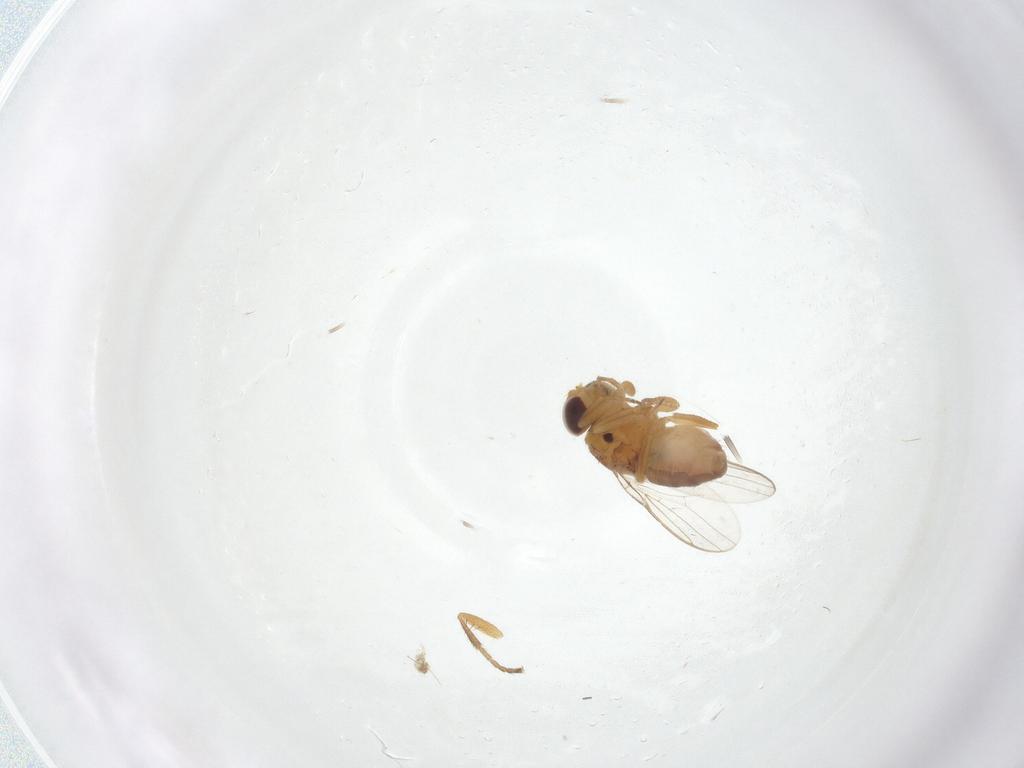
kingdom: Animalia
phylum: Arthropoda
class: Insecta
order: Diptera
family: Chloropidae
